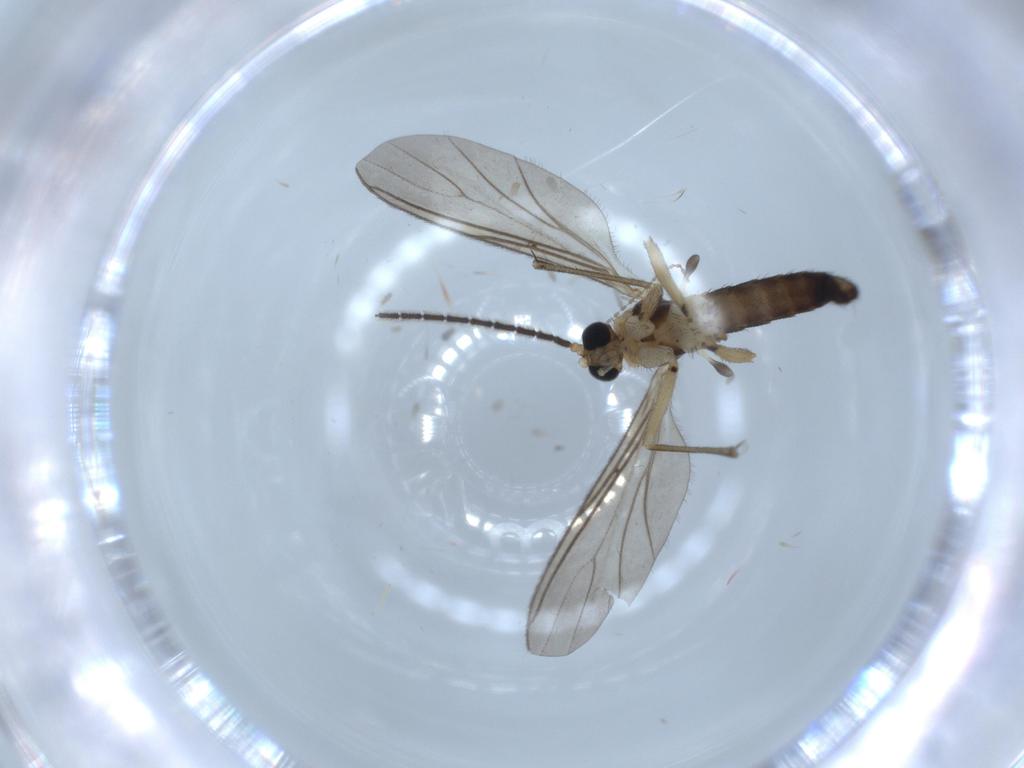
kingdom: Animalia
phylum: Arthropoda
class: Insecta
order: Diptera
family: Sciaridae
